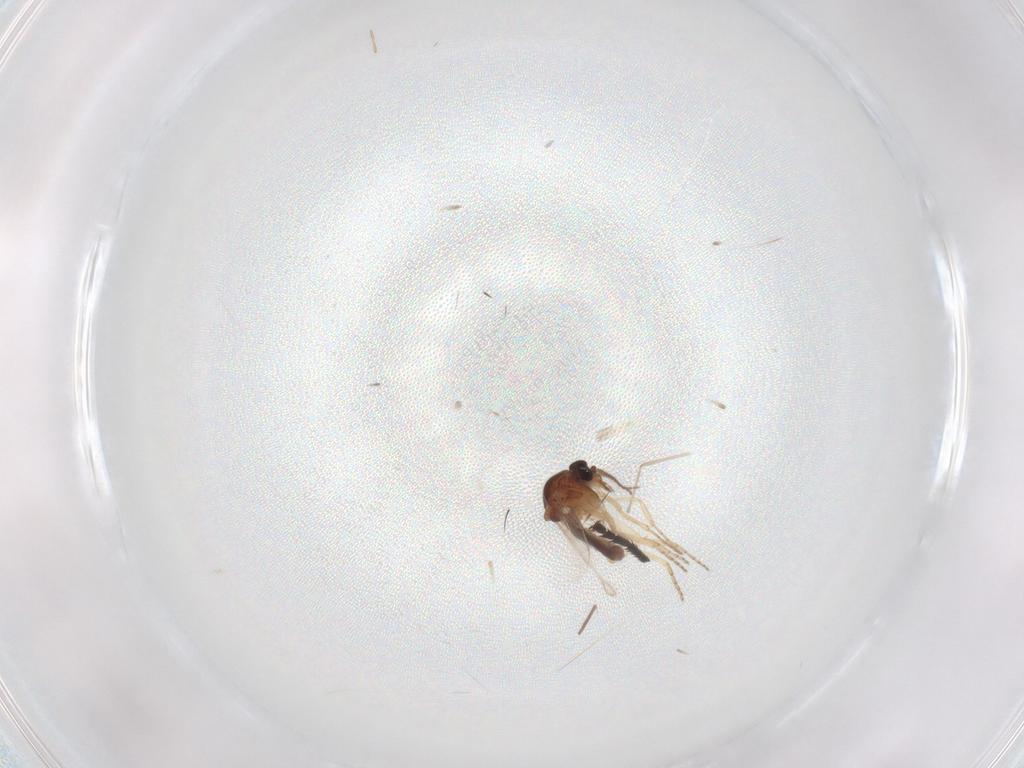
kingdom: Animalia
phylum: Arthropoda
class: Insecta
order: Diptera
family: Ceratopogonidae
